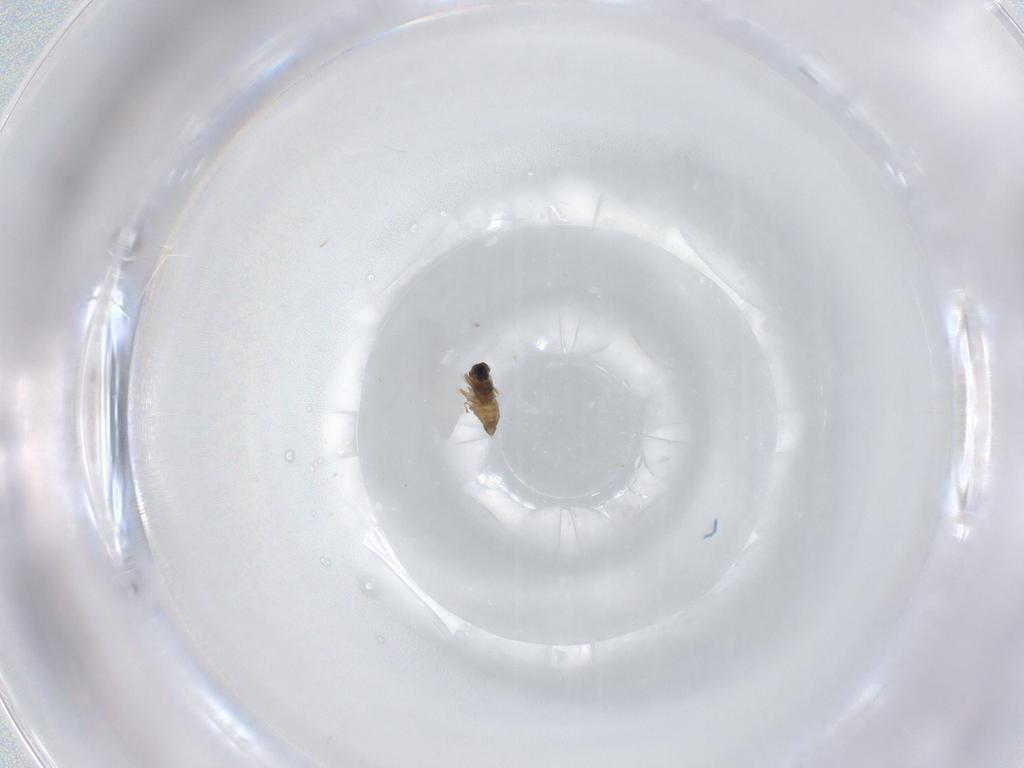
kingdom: Animalia
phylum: Arthropoda
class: Insecta
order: Diptera
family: Cecidomyiidae
